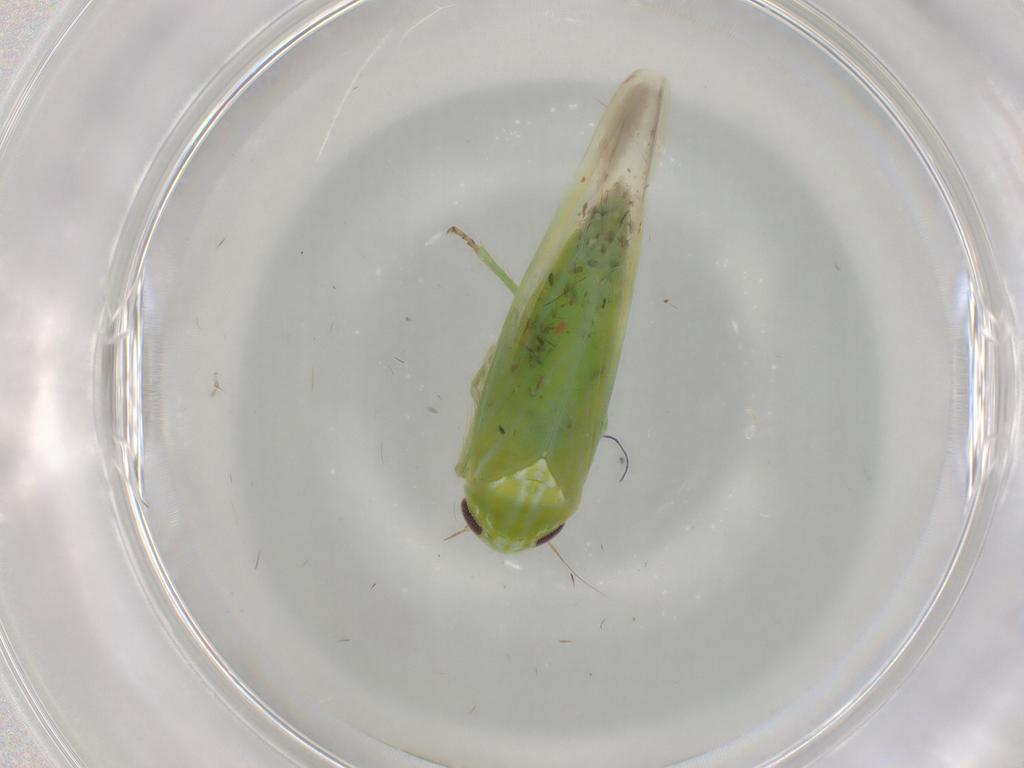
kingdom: Animalia
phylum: Arthropoda
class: Insecta
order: Hemiptera
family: Cicadellidae
